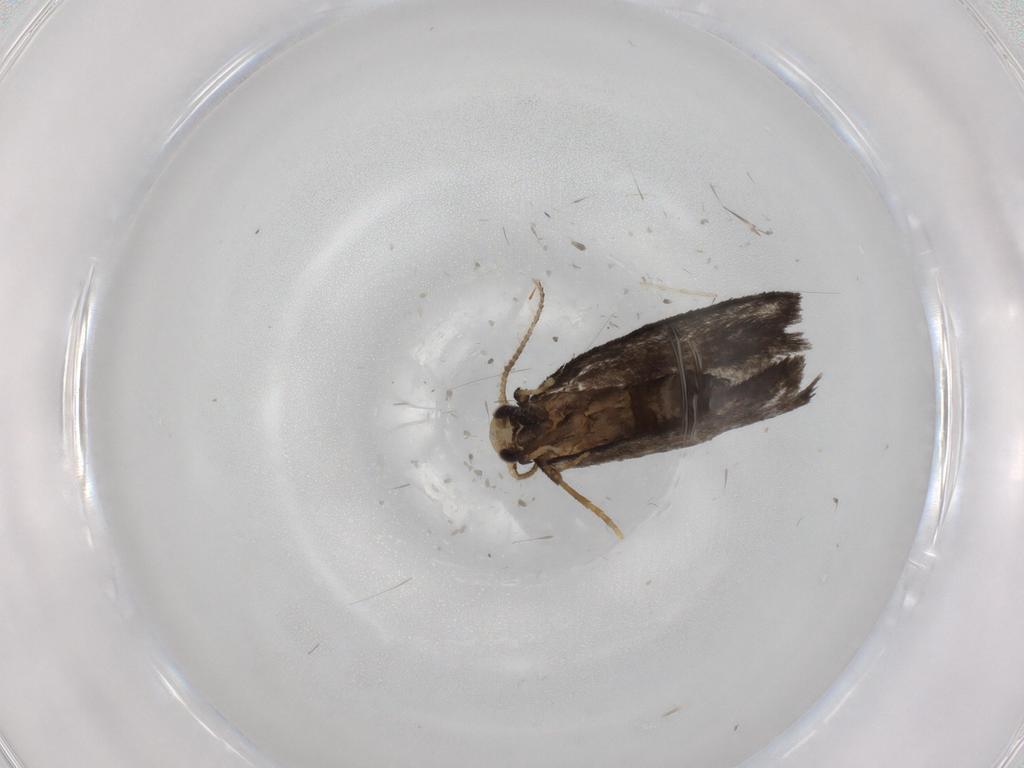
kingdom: Animalia
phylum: Arthropoda
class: Insecta
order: Lepidoptera
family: Psychidae
